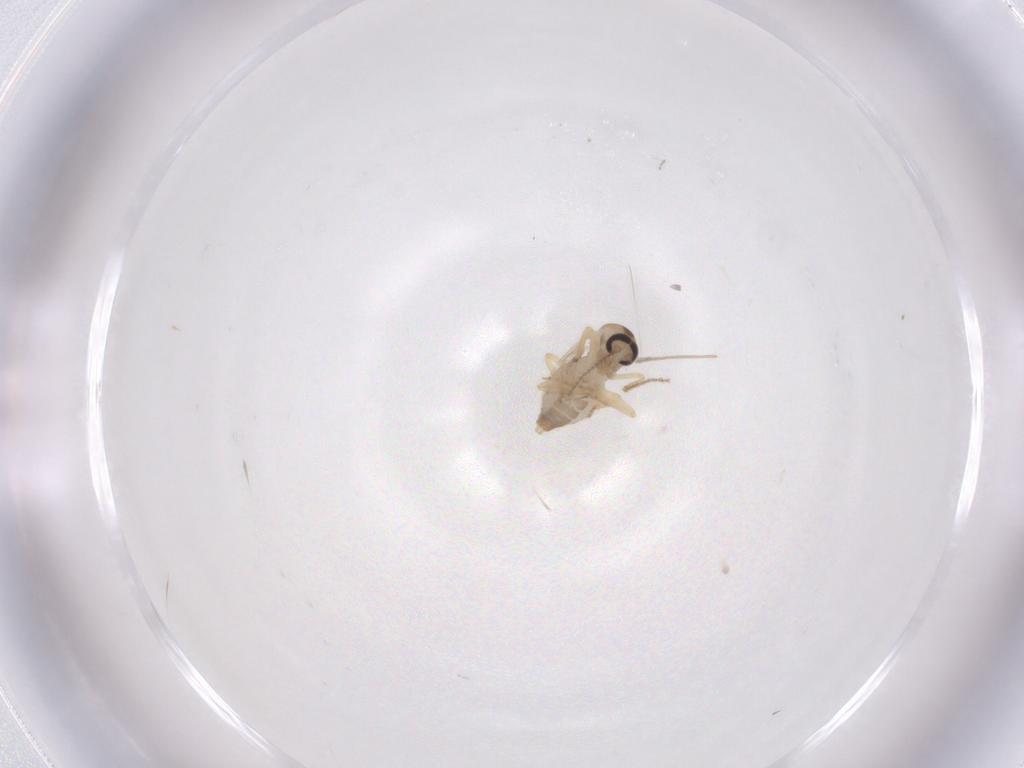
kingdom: Animalia
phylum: Arthropoda
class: Insecta
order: Diptera
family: Ceratopogonidae
